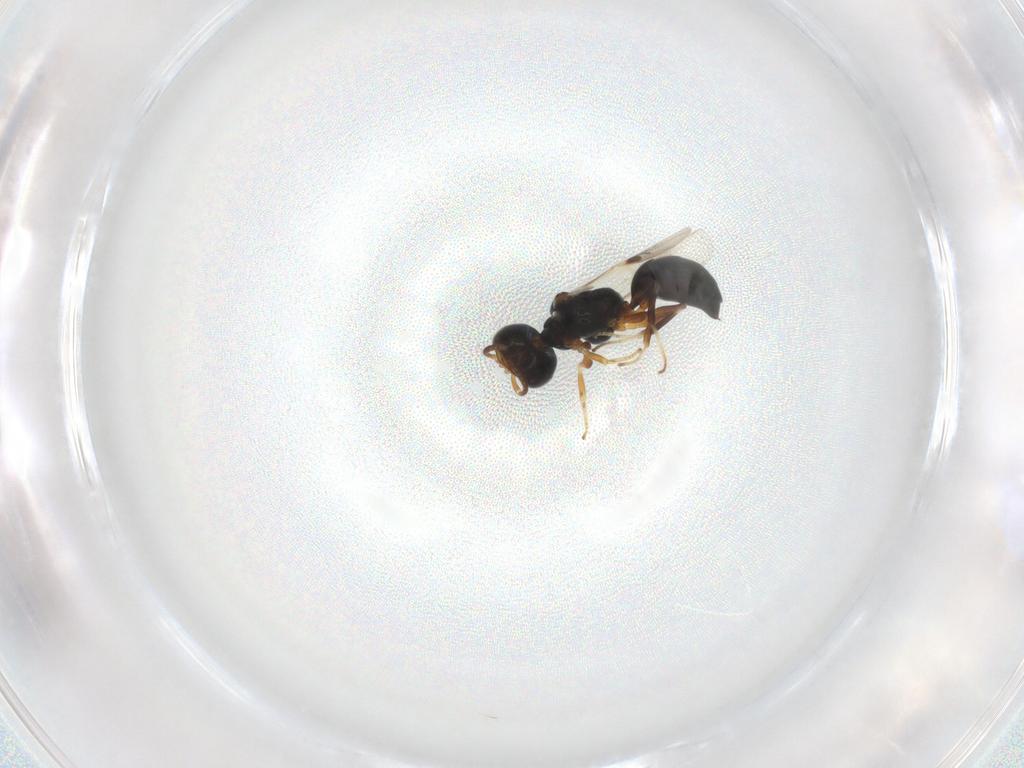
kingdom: Animalia
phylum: Arthropoda
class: Insecta
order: Hymenoptera
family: Pemphredonidae
